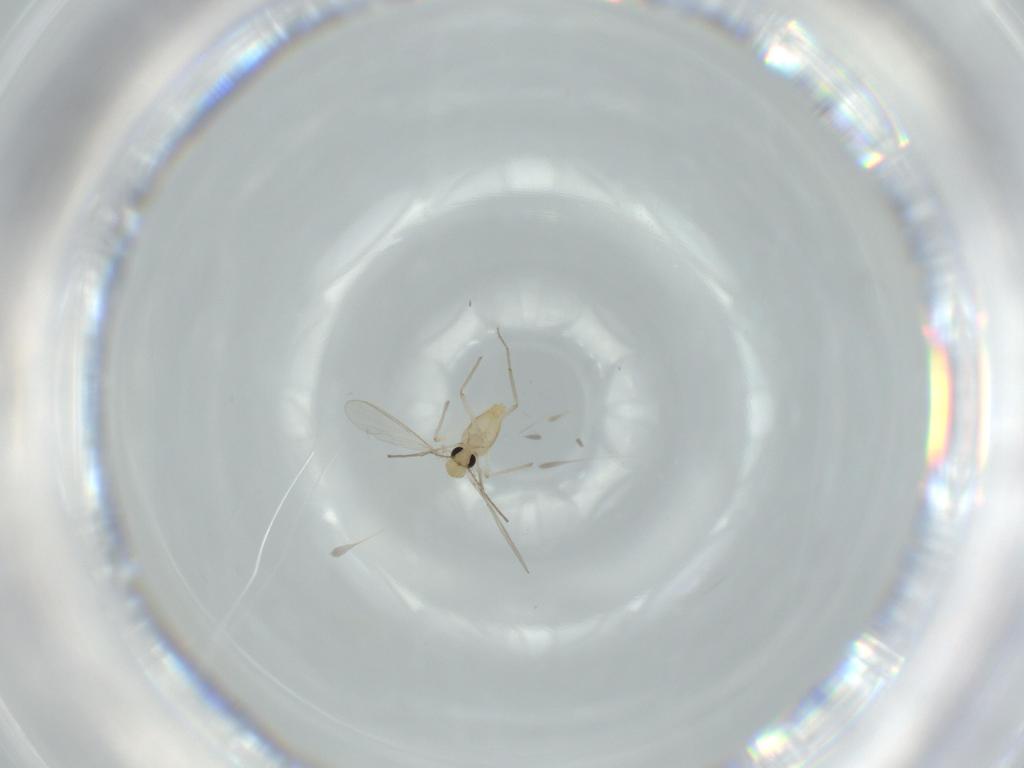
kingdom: Animalia
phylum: Arthropoda
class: Insecta
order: Diptera
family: Chironomidae
